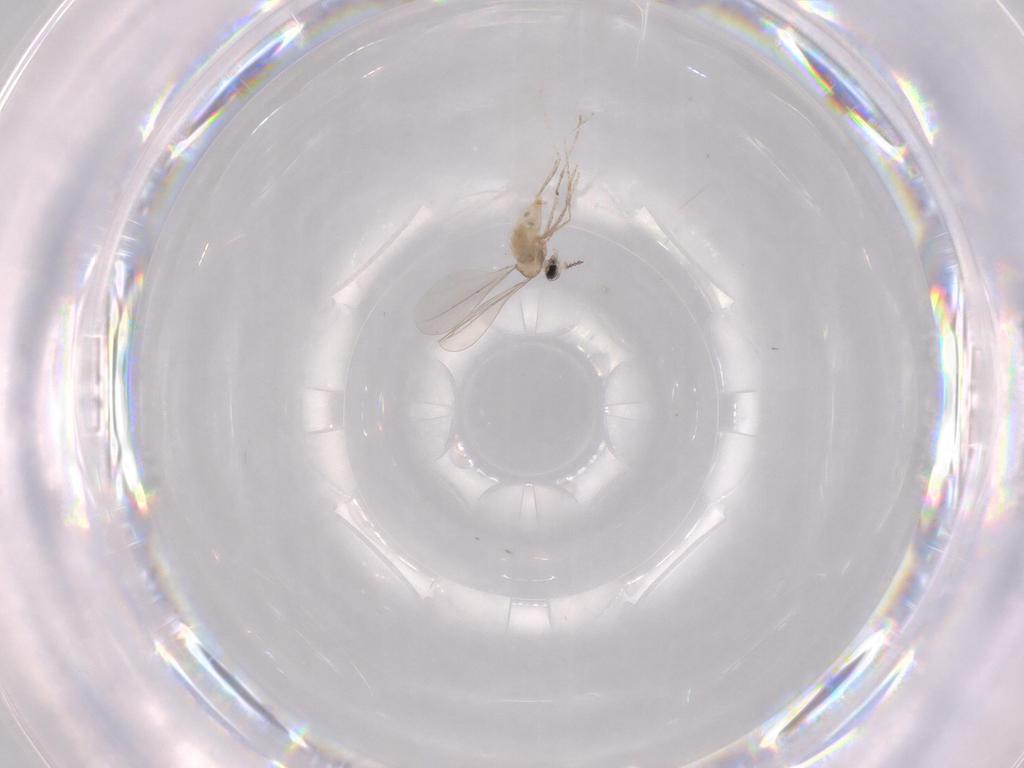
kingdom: Animalia
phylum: Arthropoda
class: Insecta
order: Diptera
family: Cecidomyiidae
